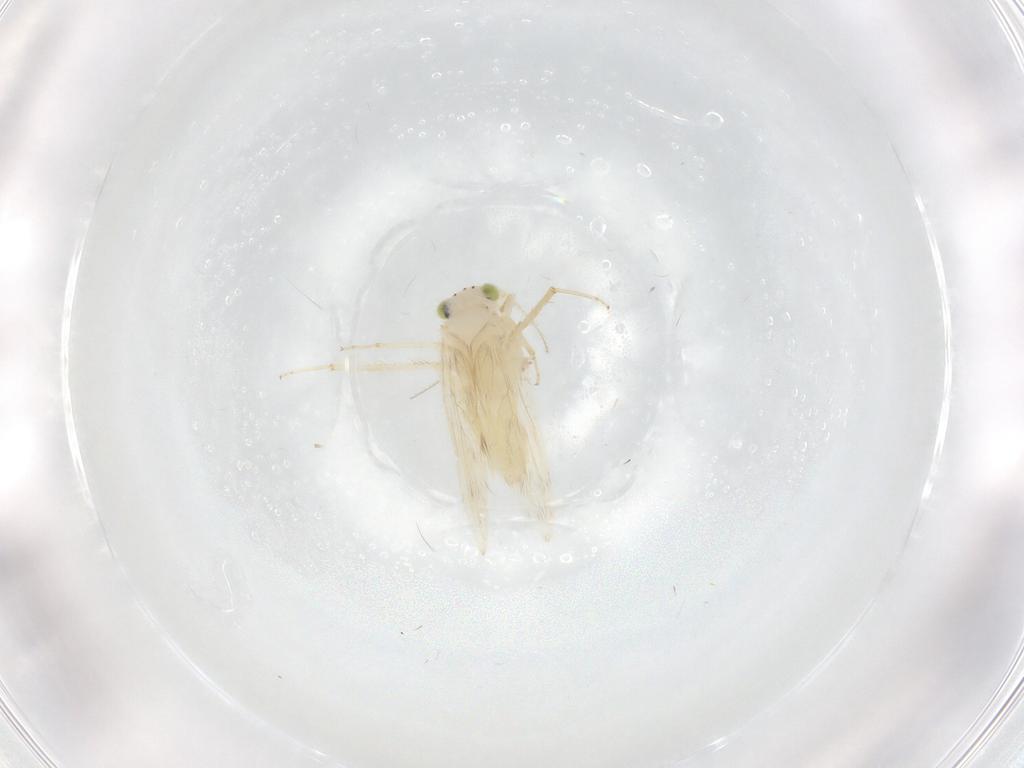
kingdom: Animalia
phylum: Arthropoda
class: Insecta
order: Psocodea
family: Lepidopsocidae
